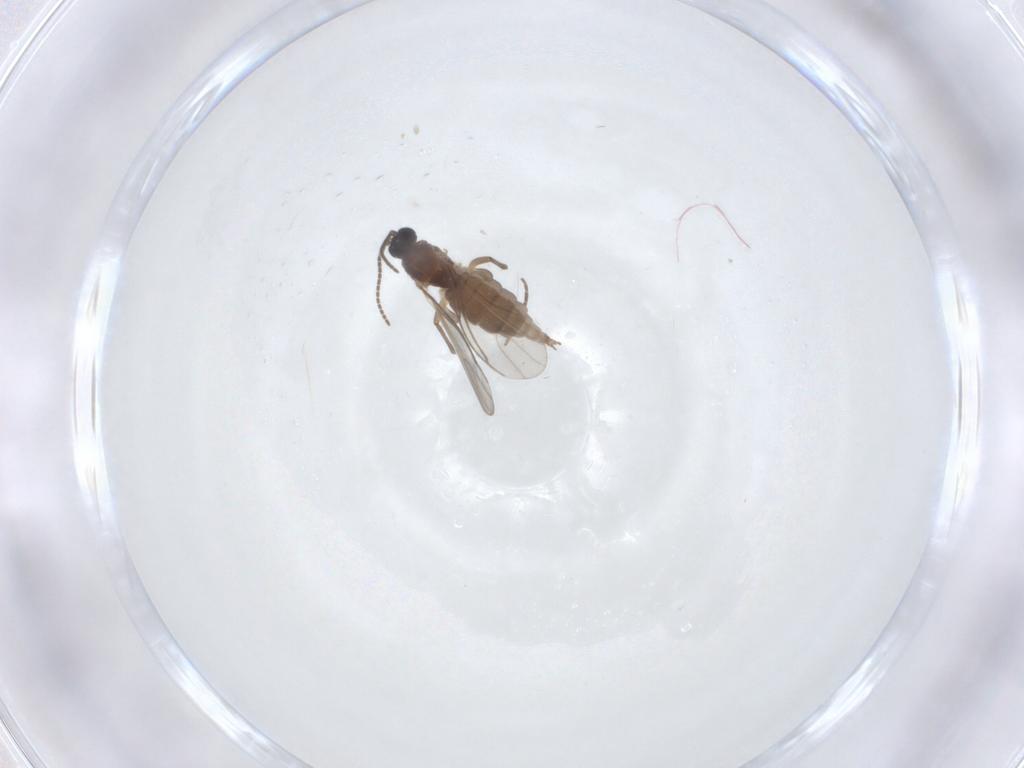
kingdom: Animalia
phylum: Arthropoda
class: Insecta
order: Diptera
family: Sciaridae
